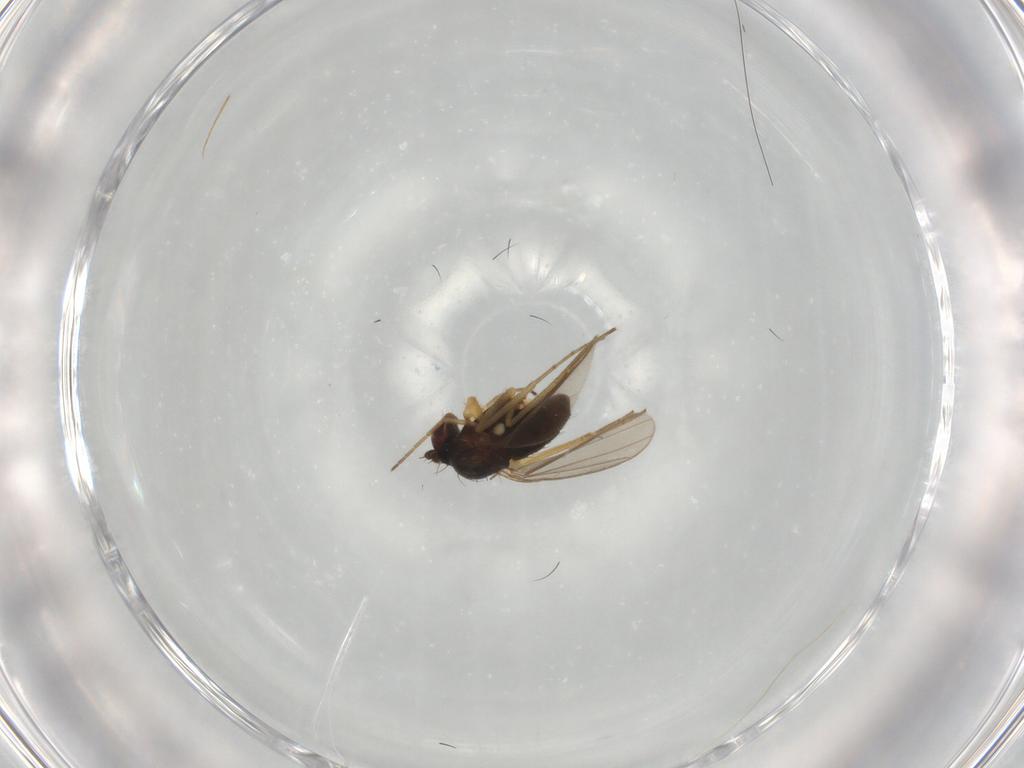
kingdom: Animalia
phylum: Arthropoda
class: Insecta
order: Diptera
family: Dolichopodidae
